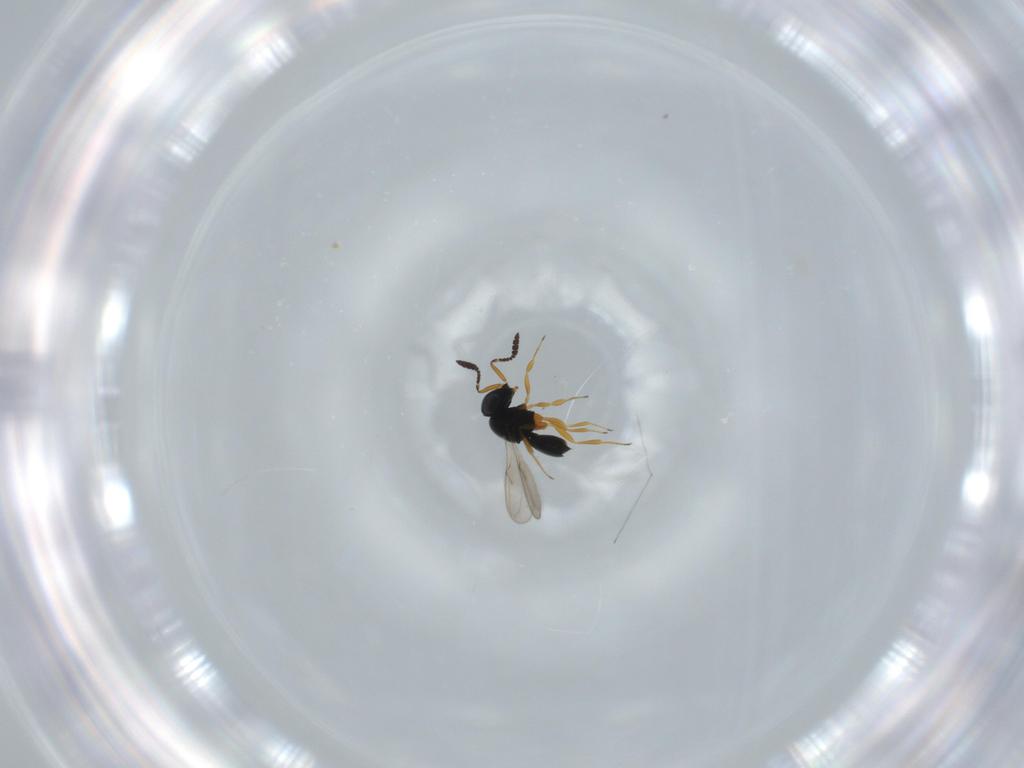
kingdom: Animalia
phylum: Arthropoda
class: Insecta
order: Hymenoptera
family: Scelionidae
